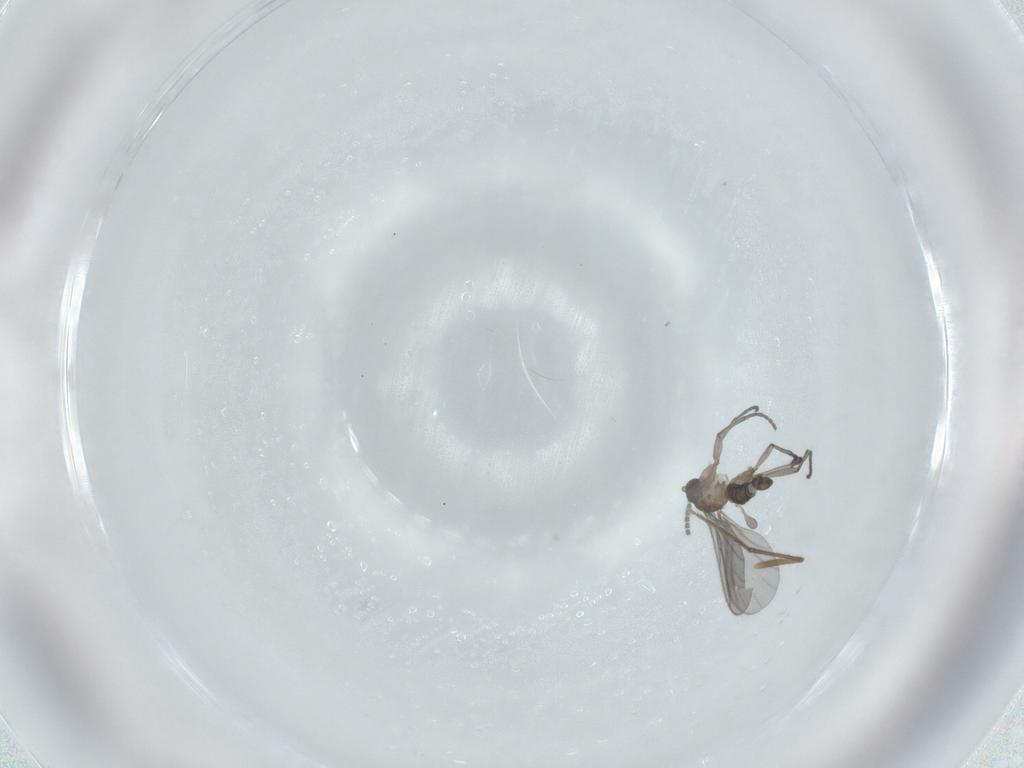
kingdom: Animalia
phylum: Arthropoda
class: Insecta
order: Diptera
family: Sciaridae
